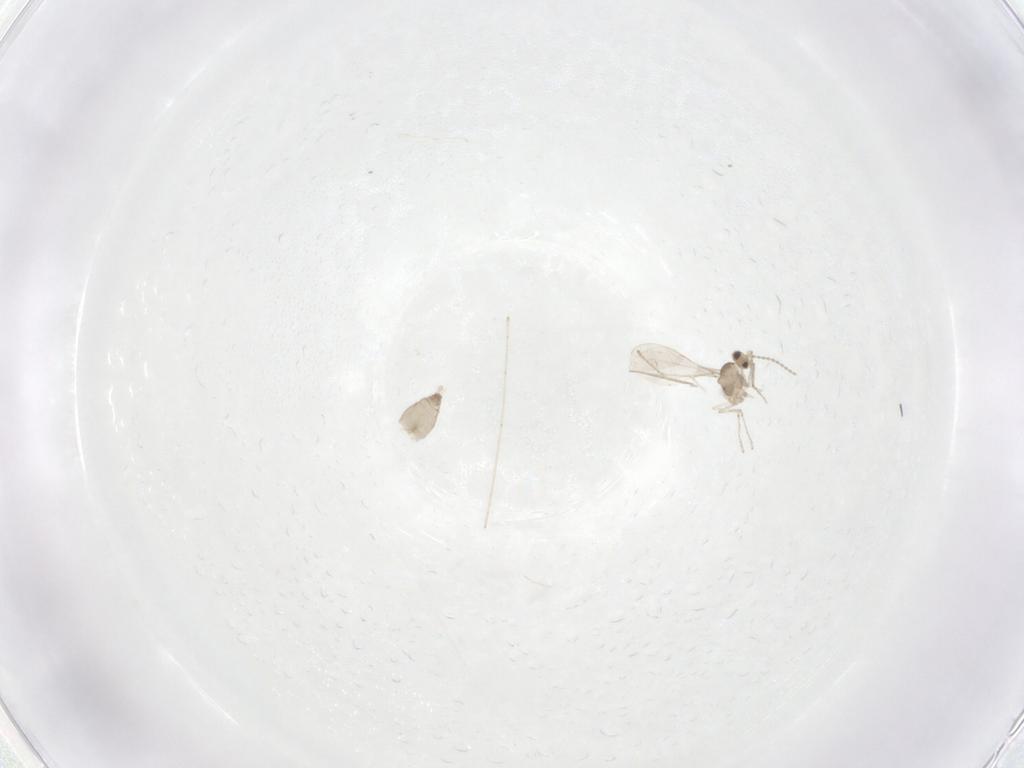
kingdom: Animalia
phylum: Arthropoda
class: Insecta
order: Diptera
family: Cecidomyiidae
